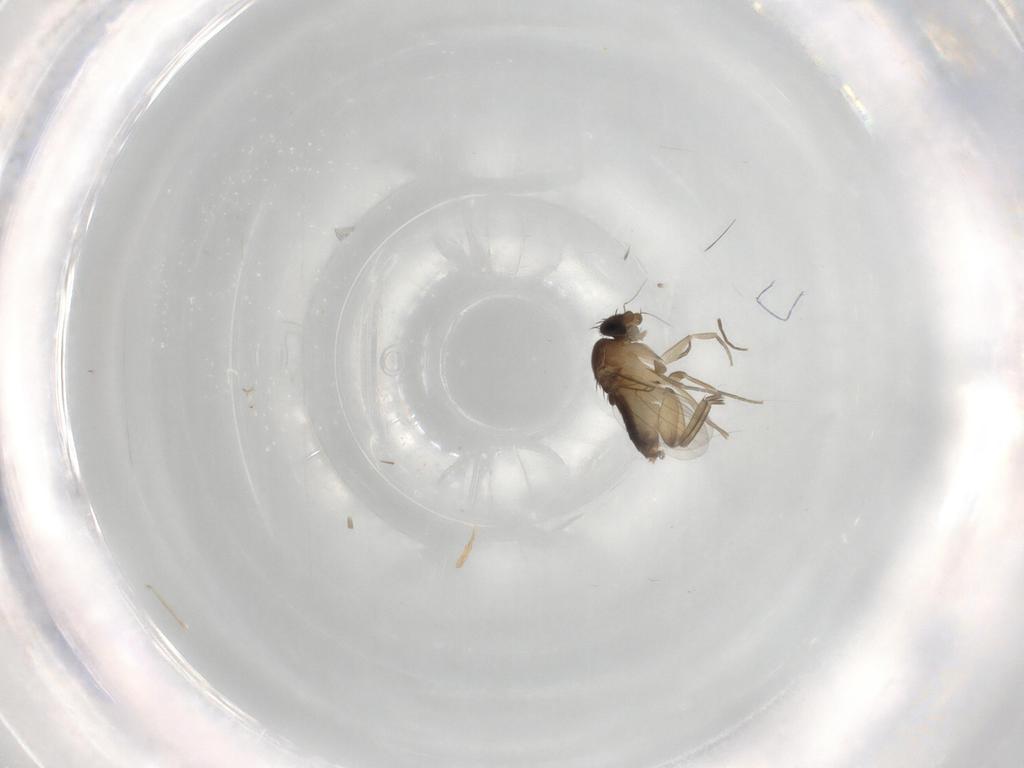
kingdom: Animalia
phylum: Arthropoda
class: Insecta
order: Diptera
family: Phoridae
